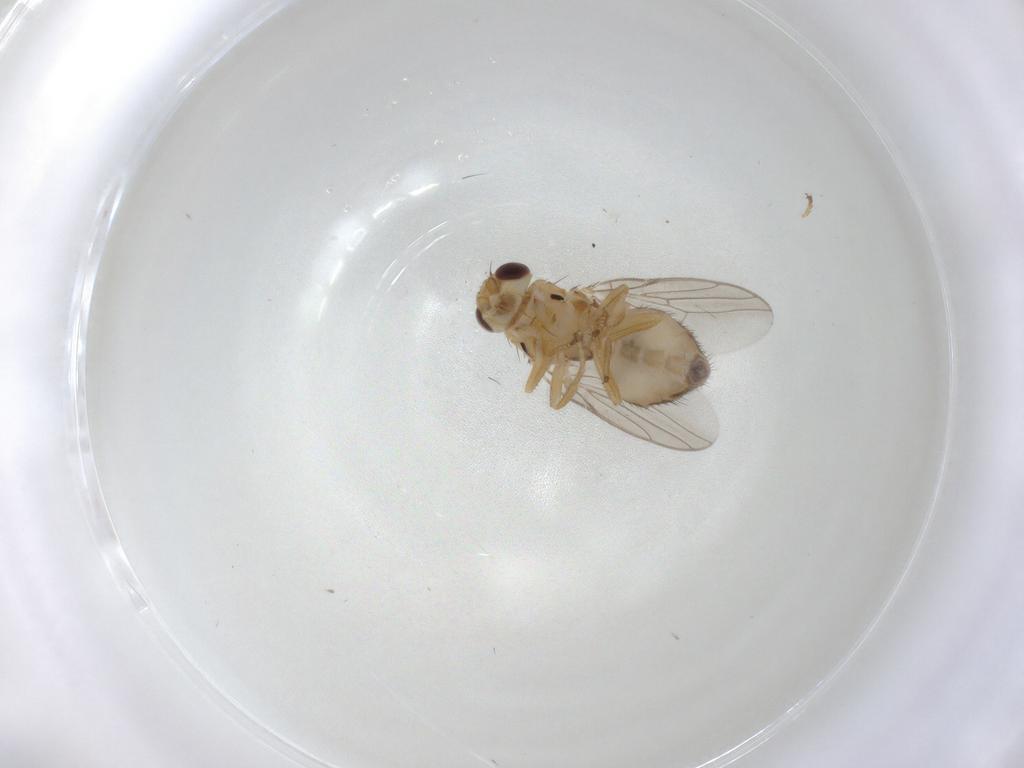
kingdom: Animalia
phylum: Arthropoda
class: Insecta
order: Diptera
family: Chloropidae
